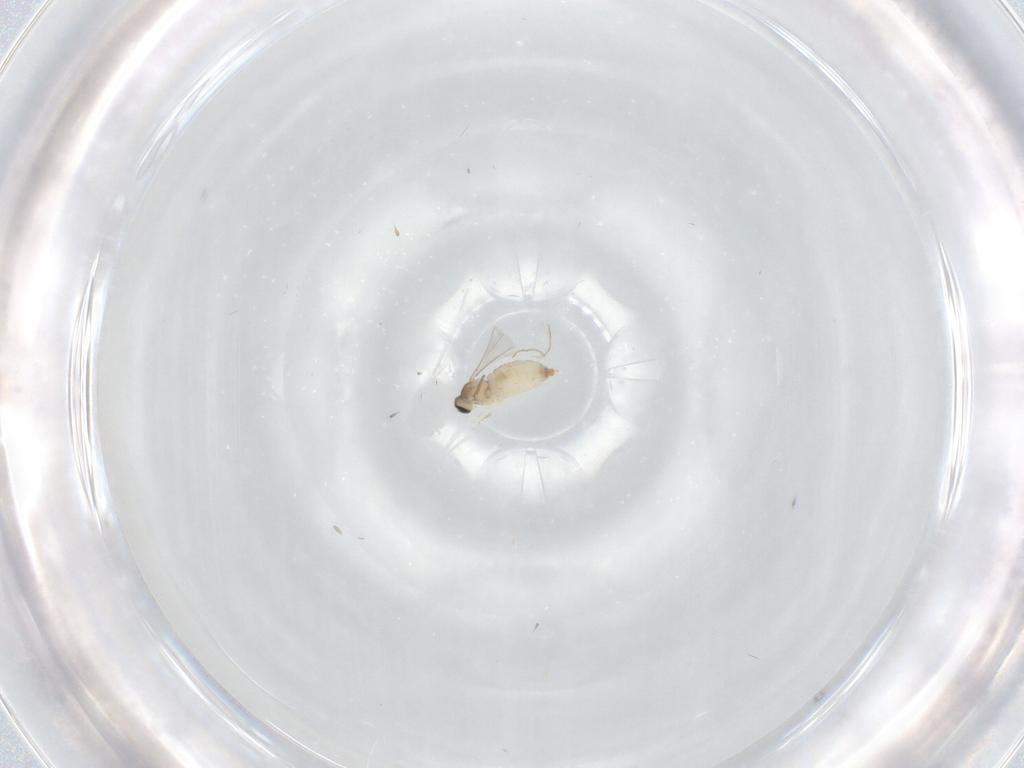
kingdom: Animalia
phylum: Arthropoda
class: Insecta
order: Diptera
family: Cecidomyiidae
